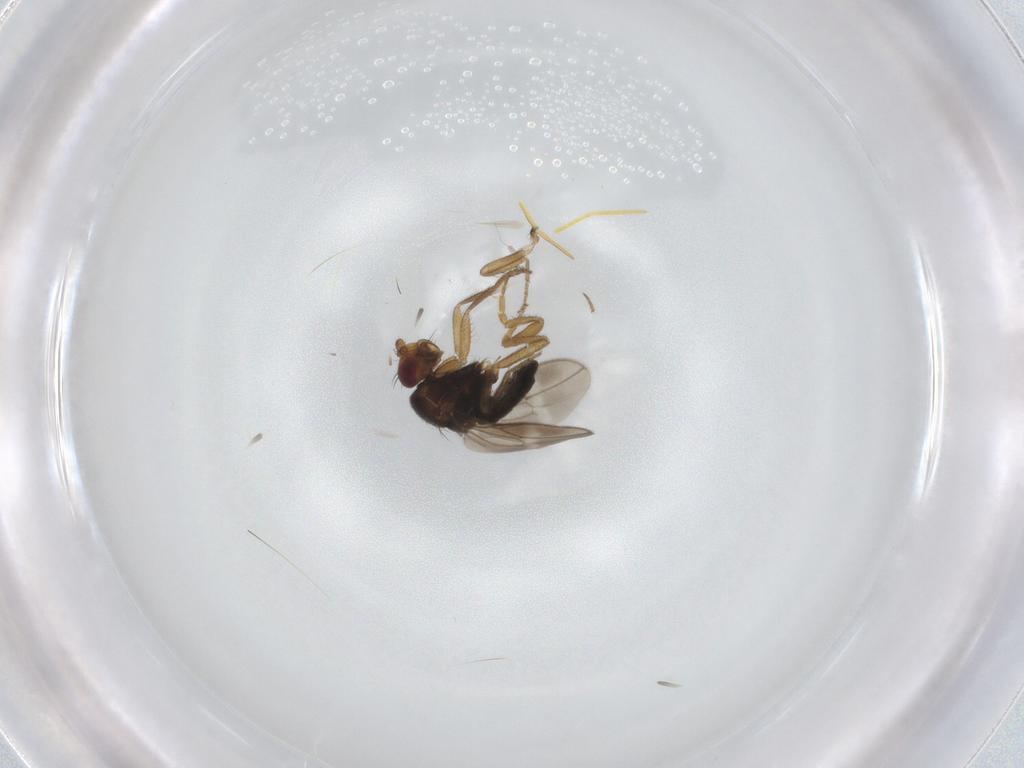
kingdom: Animalia
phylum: Arthropoda
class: Insecta
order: Diptera
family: Sphaeroceridae
